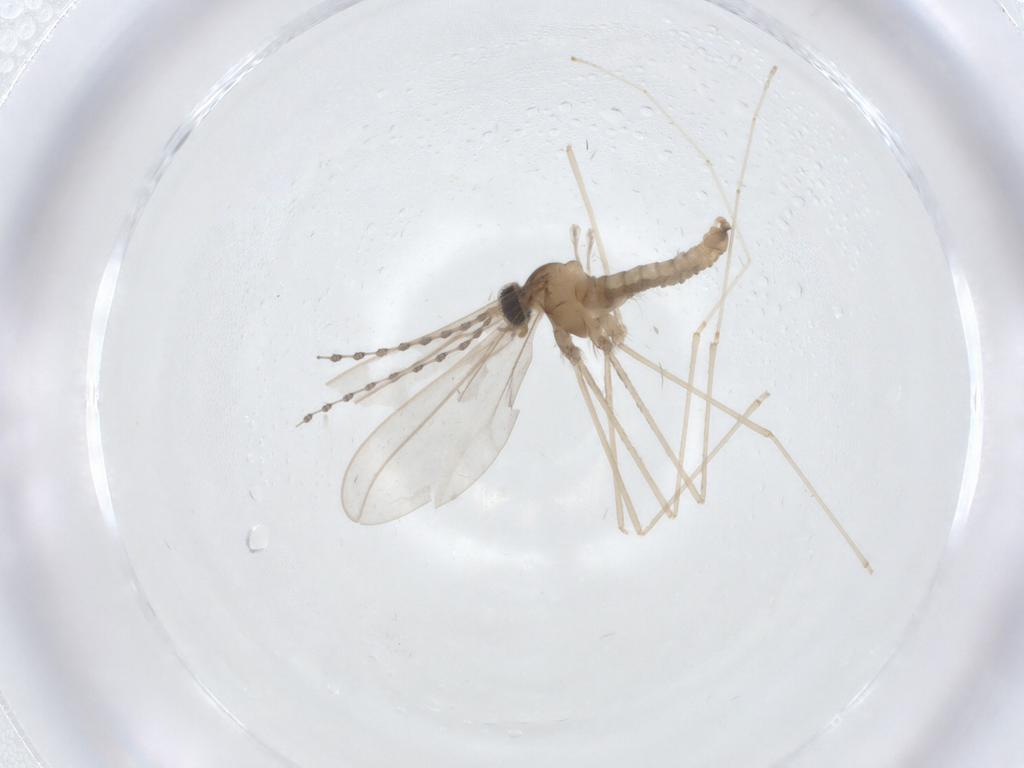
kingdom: Animalia
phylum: Arthropoda
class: Insecta
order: Diptera
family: Cecidomyiidae
